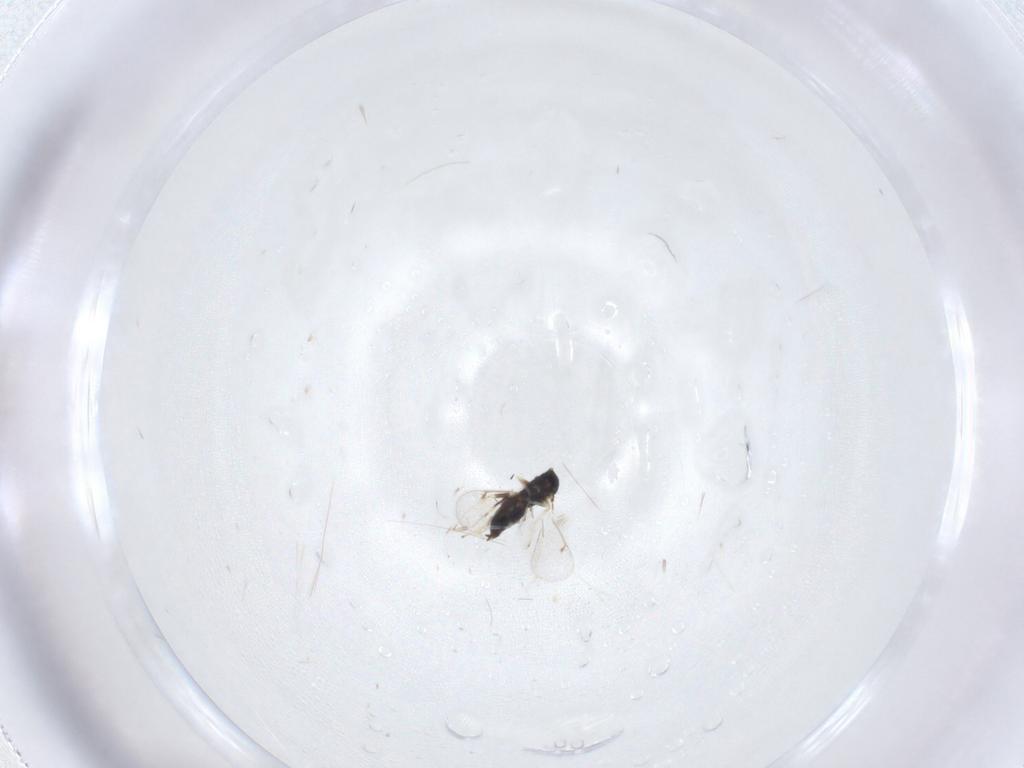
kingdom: Animalia
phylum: Arthropoda
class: Insecta
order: Hymenoptera
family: Eulophidae
